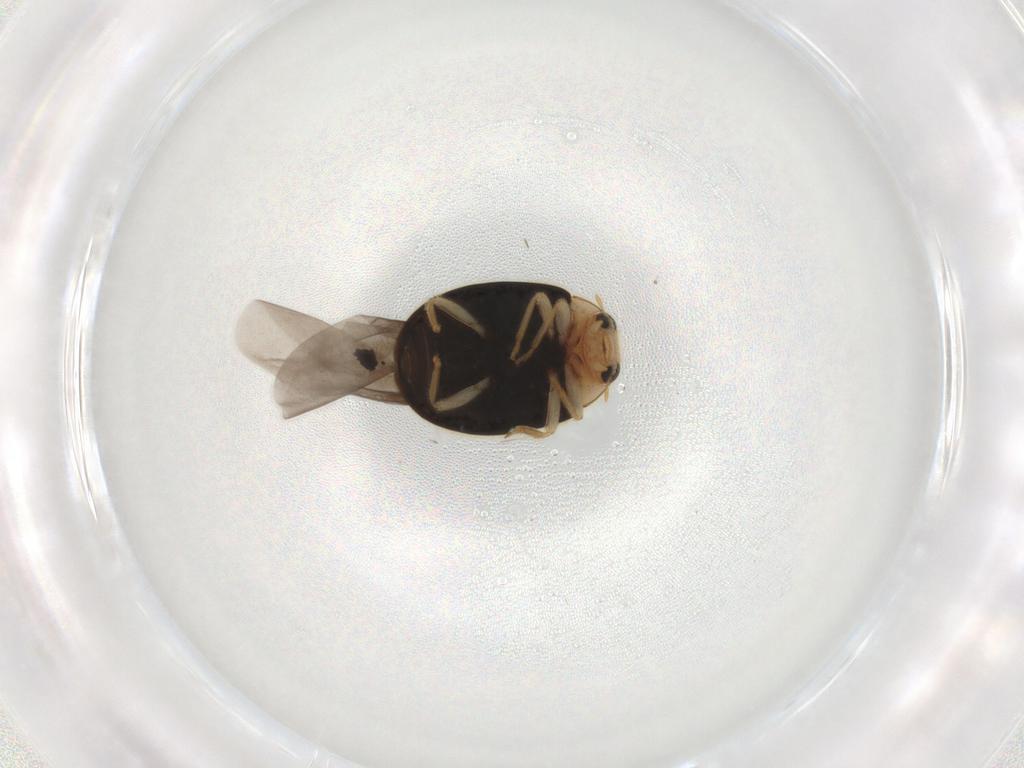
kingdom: Animalia
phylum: Arthropoda
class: Insecta
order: Coleoptera
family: Coccinellidae
